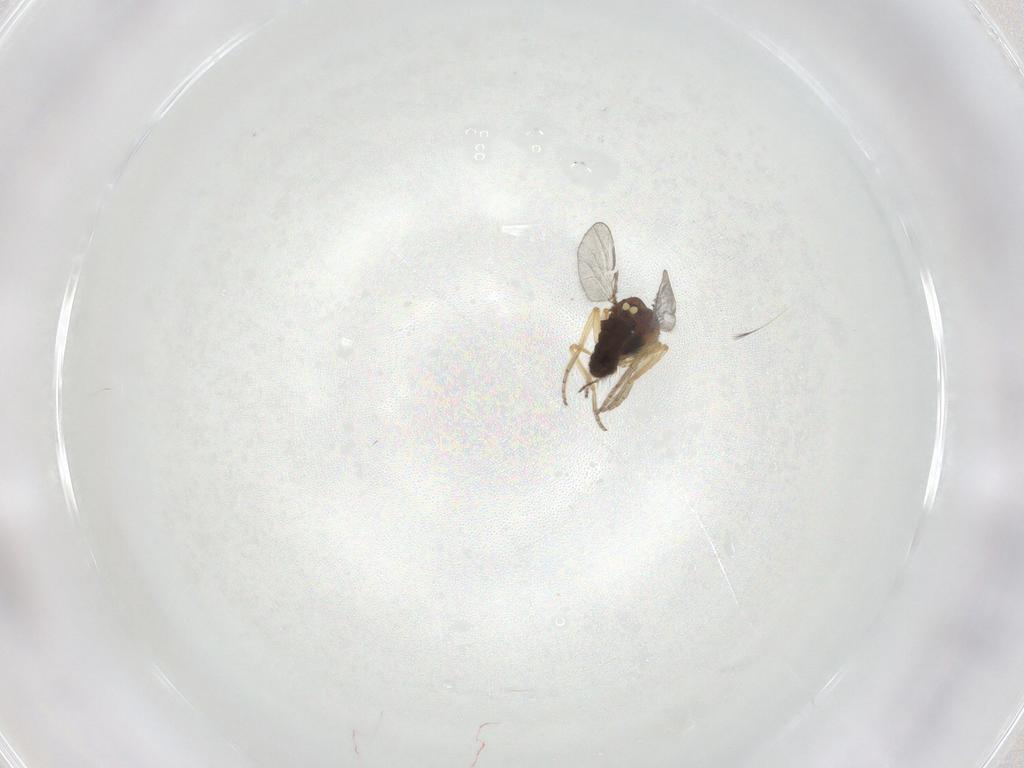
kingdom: Animalia
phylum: Arthropoda
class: Insecta
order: Diptera
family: Ceratopogonidae
